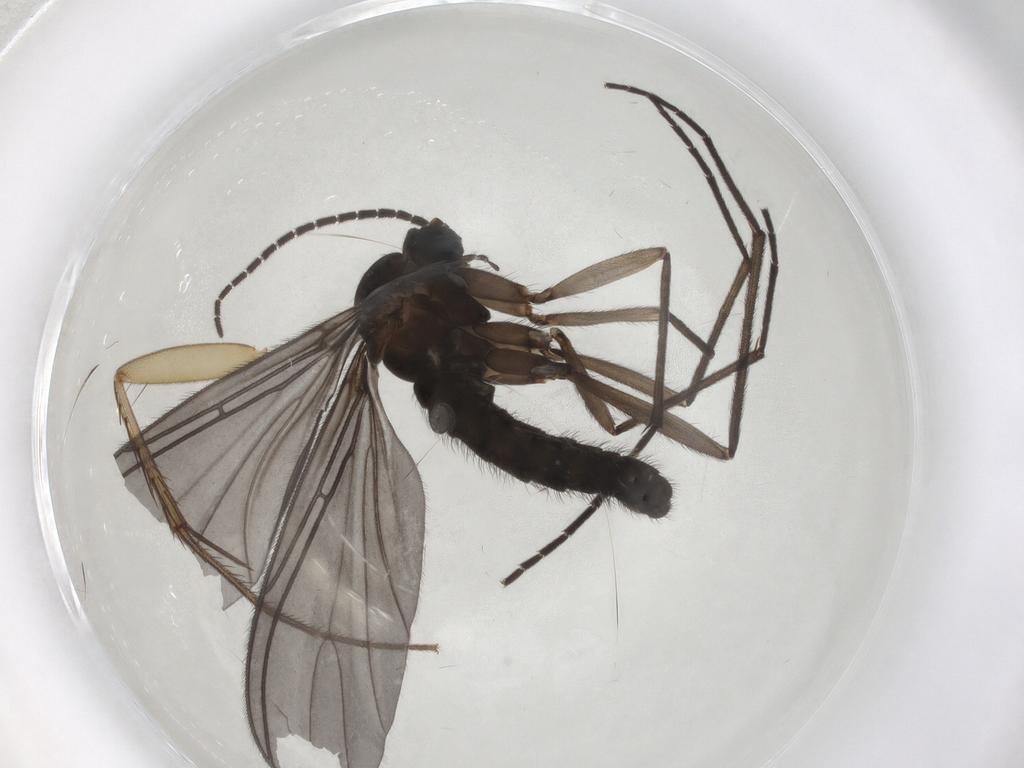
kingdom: Animalia
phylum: Arthropoda
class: Insecta
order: Diptera
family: Sciaridae
